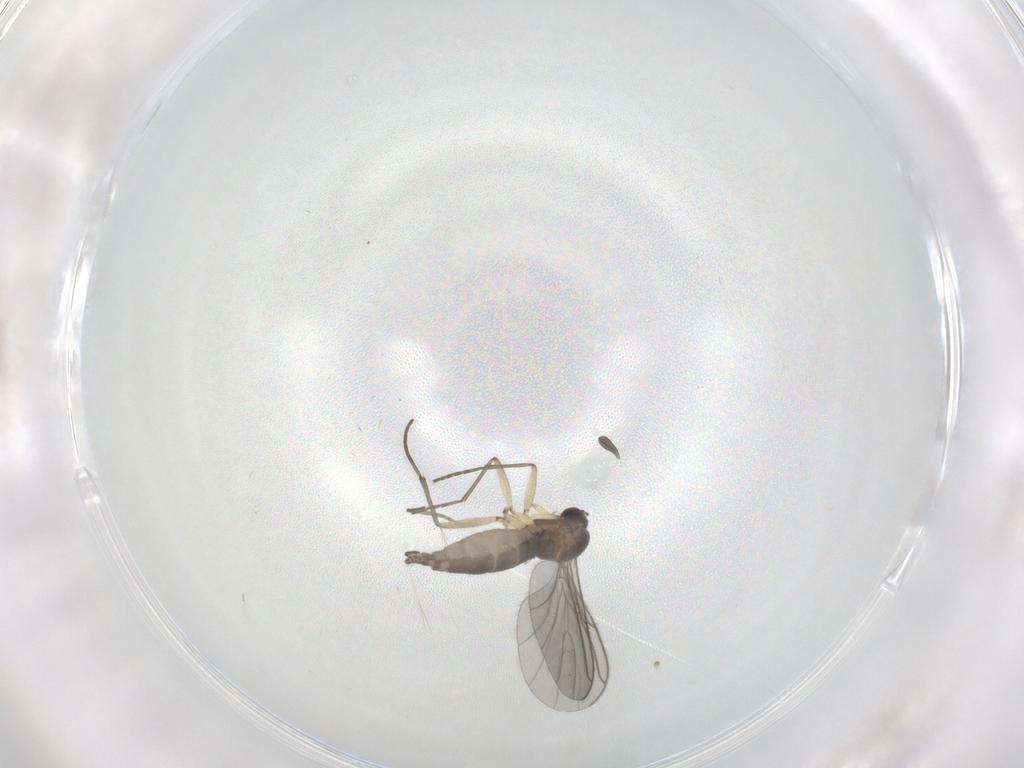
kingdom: Animalia
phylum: Arthropoda
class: Insecta
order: Diptera
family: Sciaridae
